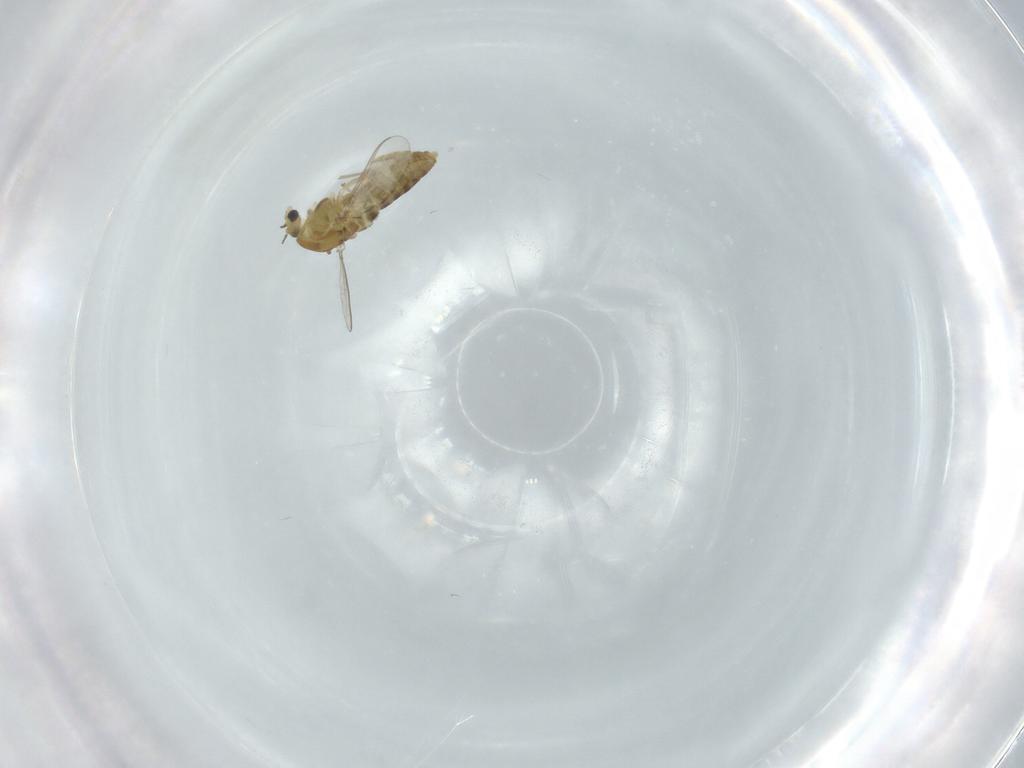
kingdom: Animalia
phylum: Arthropoda
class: Insecta
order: Diptera
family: Chironomidae
